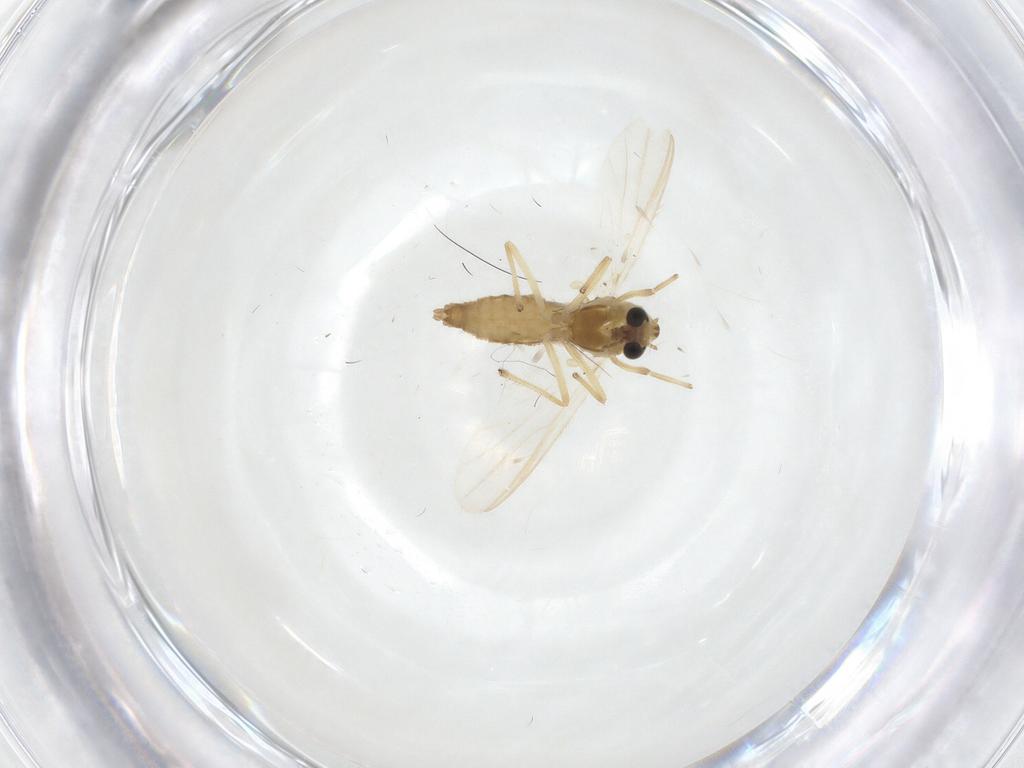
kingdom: Animalia
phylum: Arthropoda
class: Insecta
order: Diptera
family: Chironomidae
